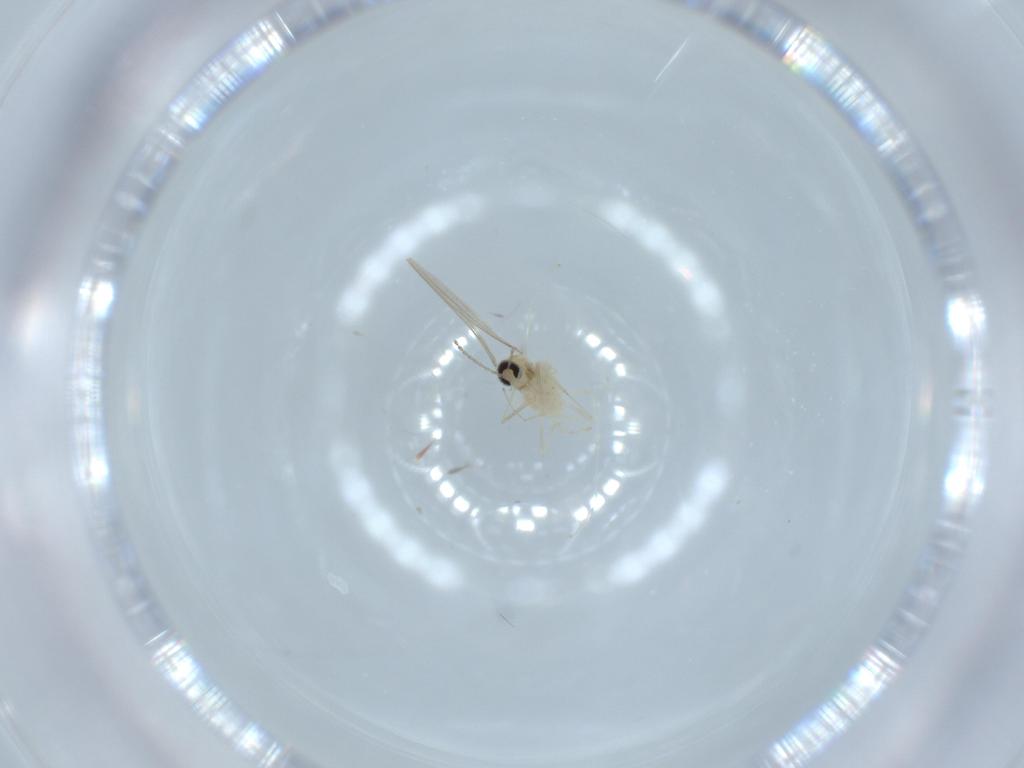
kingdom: Animalia
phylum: Arthropoda
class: Insecta
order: Diptera
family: Cecidomyiidae
